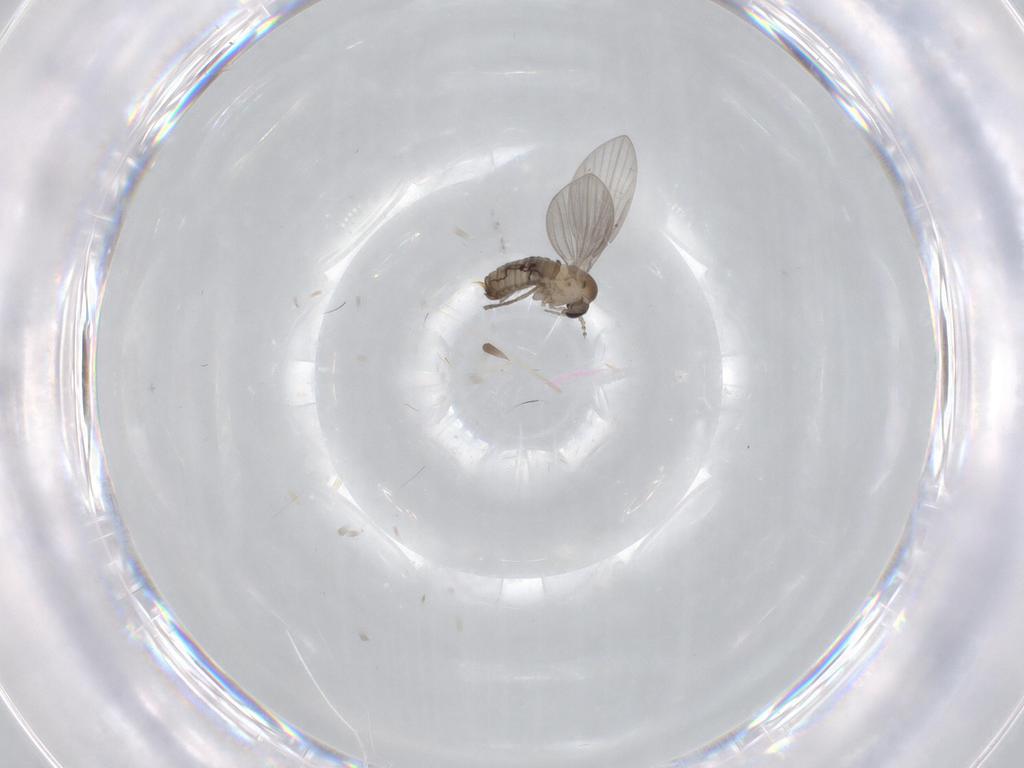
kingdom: Animalia
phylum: Arthropoda
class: Insecta
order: Diptera
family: Psychodidae
